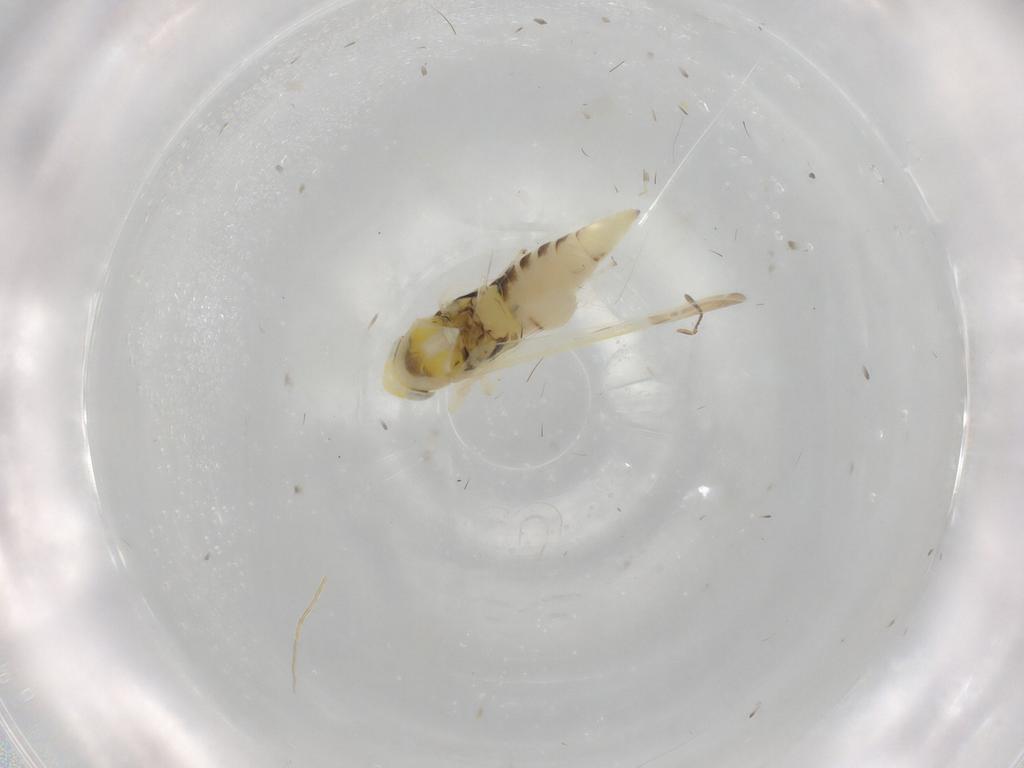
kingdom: Animalia
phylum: Arthropoda
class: Insecta
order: Hemiptera
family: Cicadellidae
